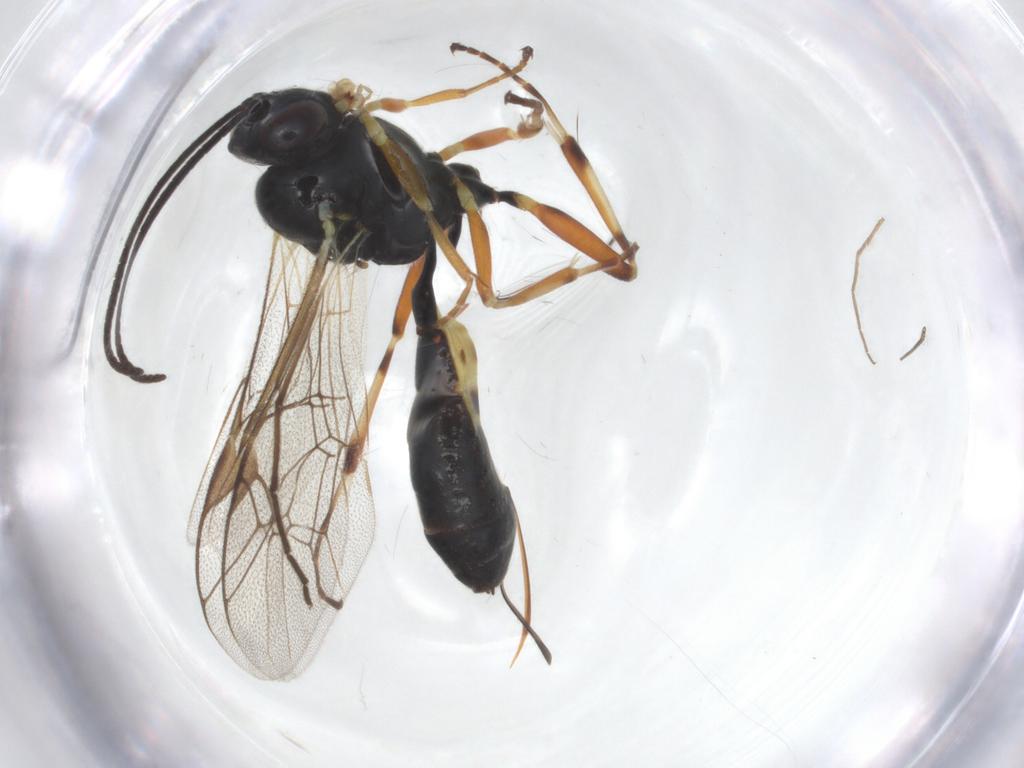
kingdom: Animalia
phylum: Arthropoda
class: Insecta
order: Hymenoptera
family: Ichneumonidae
